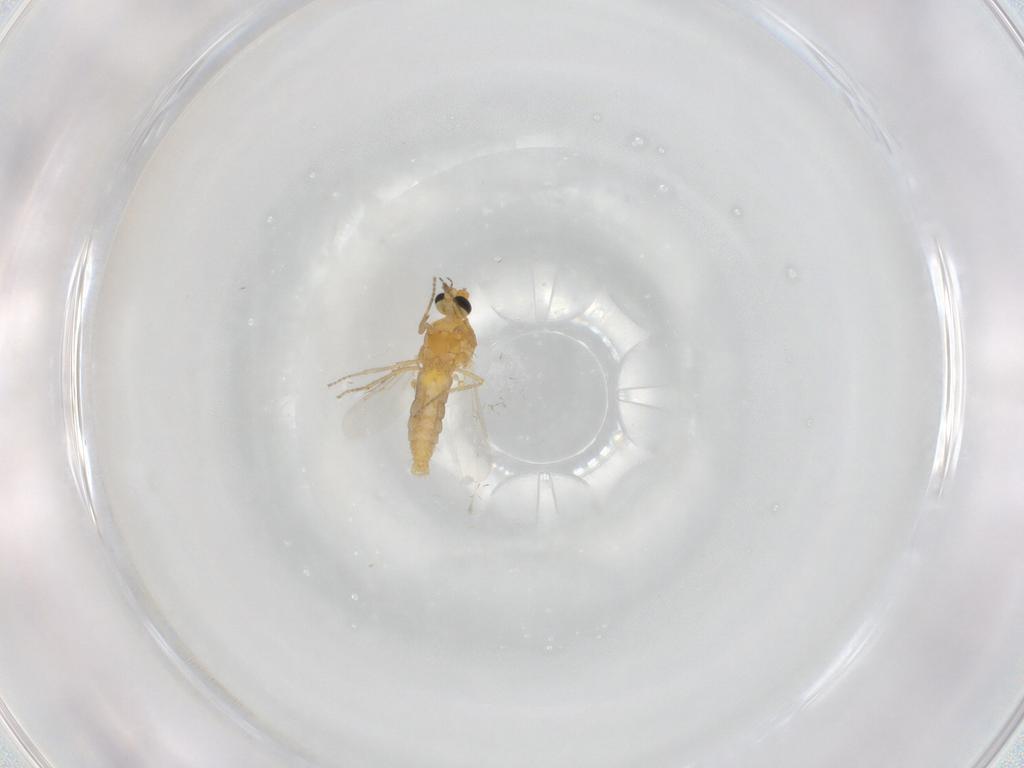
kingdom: Animalia
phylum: Arthropoda
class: Insecta
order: Diptera
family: Ceratopogonidae
